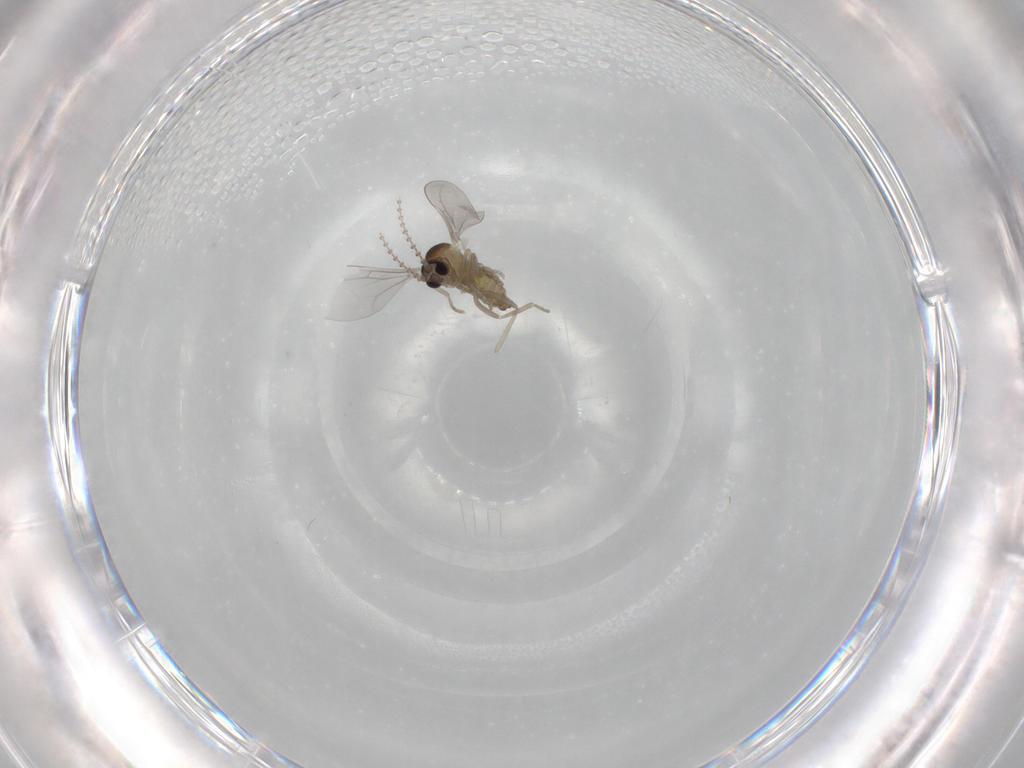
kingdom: Animalia
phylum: Arthropoda
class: Insecta
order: Diptera
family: Cecidomyiidae
